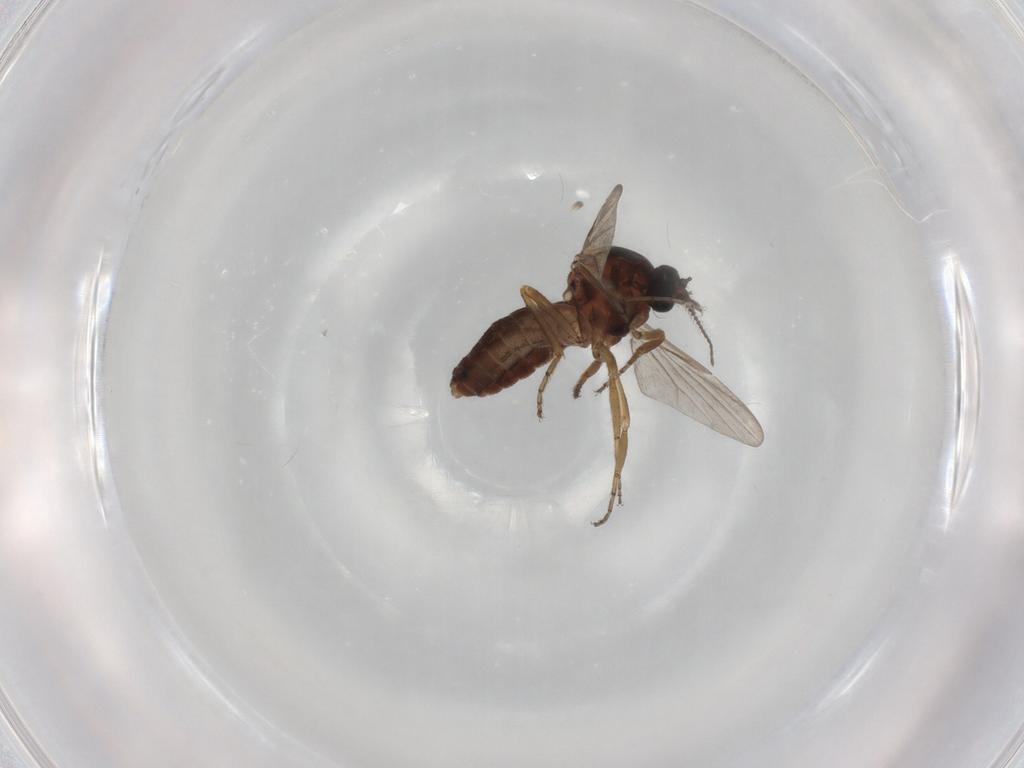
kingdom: Animalia
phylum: Arthropoda
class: Insecta
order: Diptera
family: Ceratopogonidae
